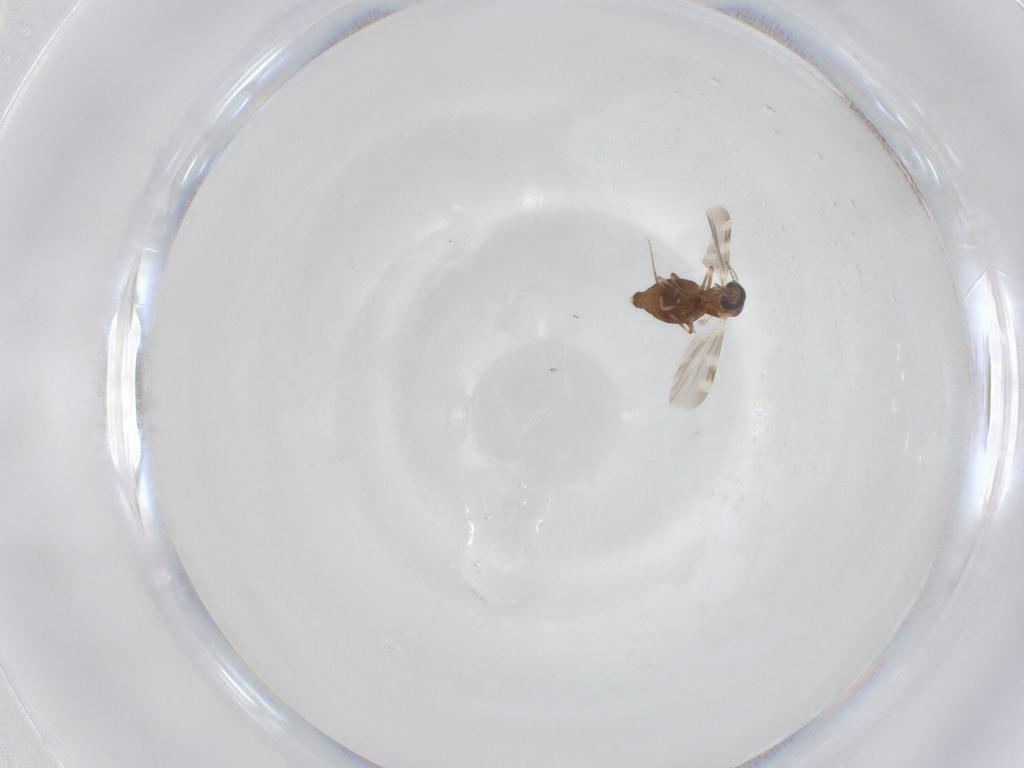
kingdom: Animalia
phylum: Arthropoda
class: Insecta
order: Diptera
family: Ceratopogonidae
